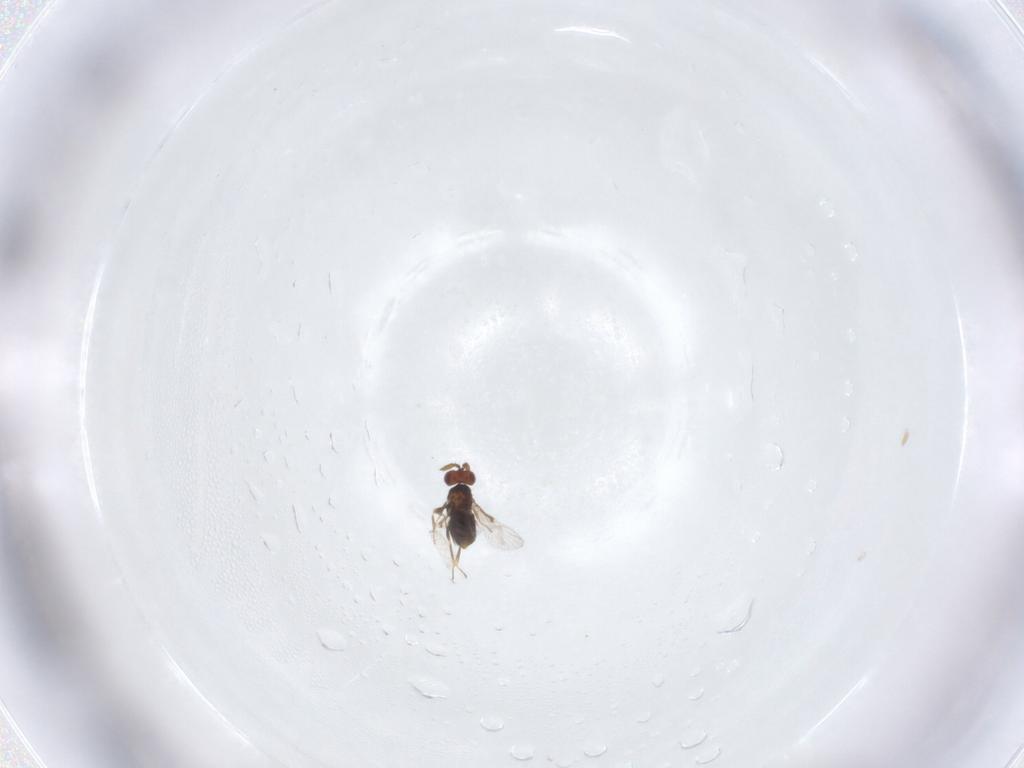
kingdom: Animalia
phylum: Arthropoda
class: Insecta
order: Hymenoptera
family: Agaonidae
